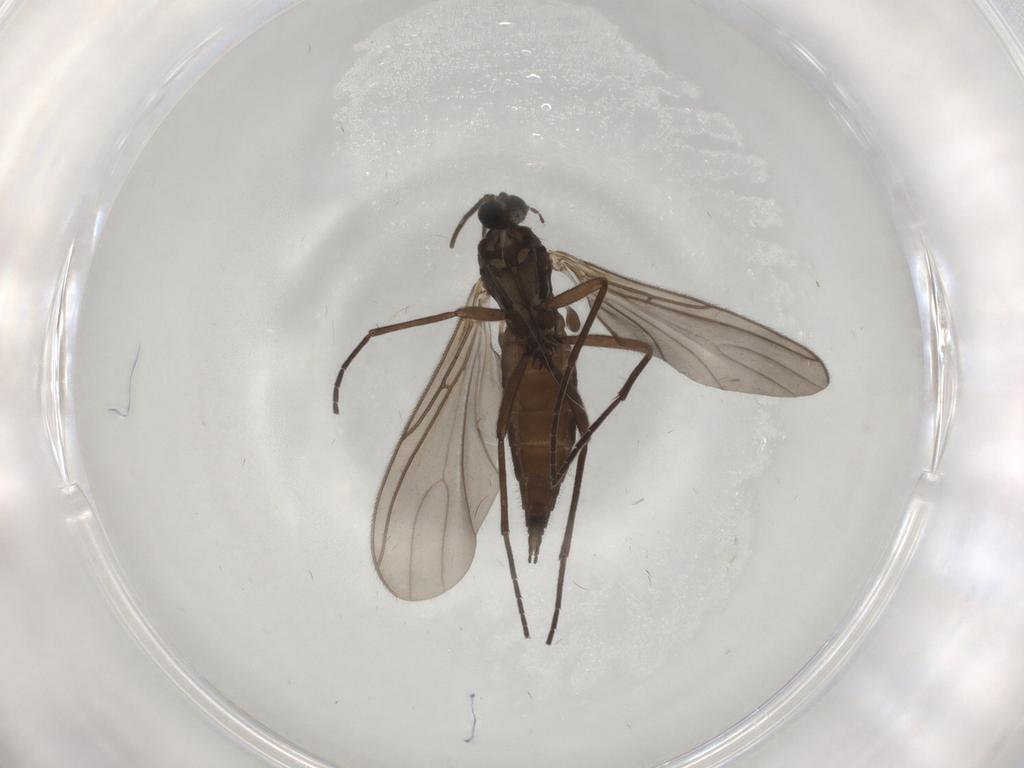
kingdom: Animalia
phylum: Arthropoda
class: Insecta
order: Diptera
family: Sciaridae
